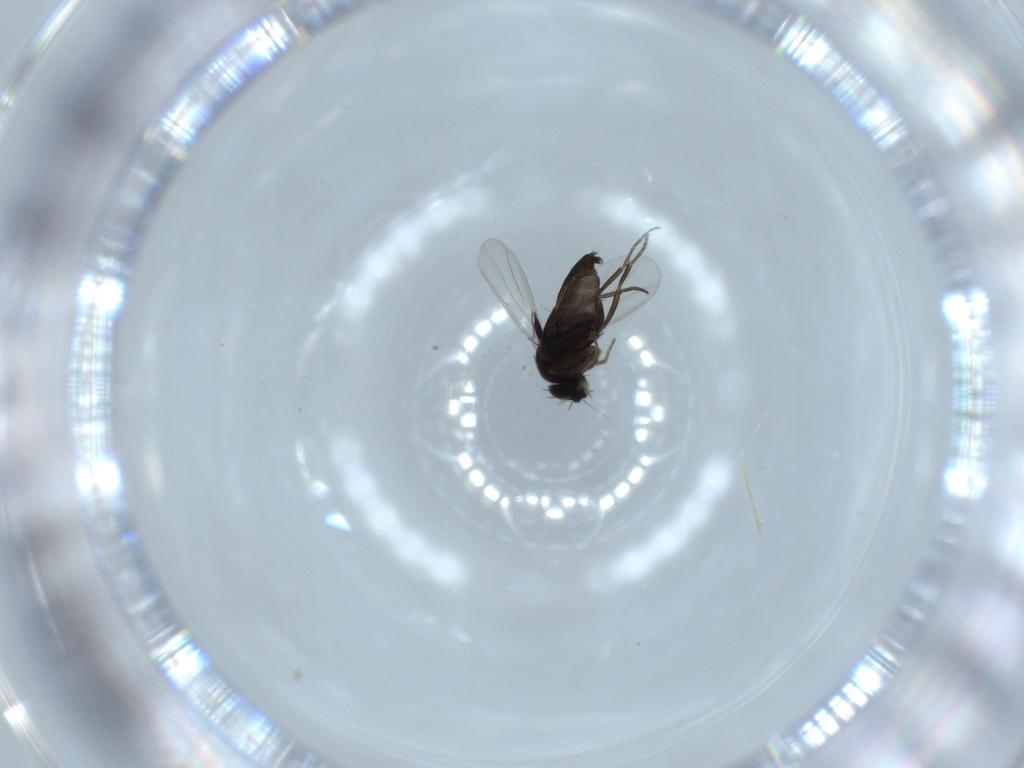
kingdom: Animalia
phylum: Arthropoda
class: Insecta
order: Diptera
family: Phoridae
